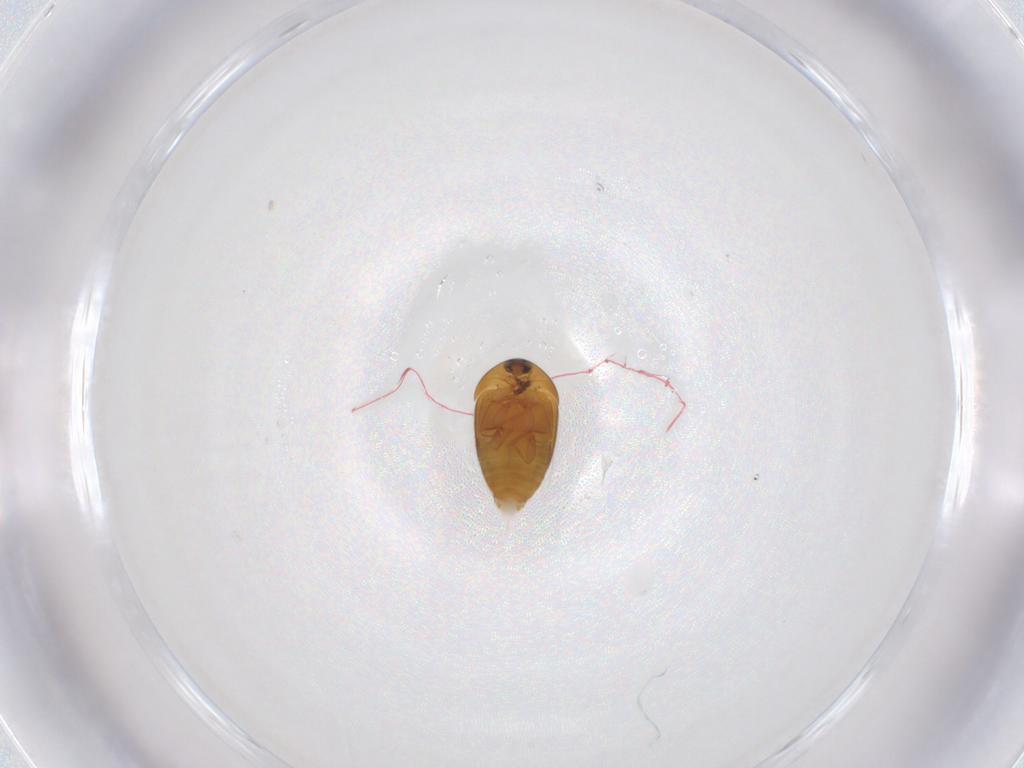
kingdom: Animalia
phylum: Arthropoda
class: Insecta
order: Coleoptera
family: Corylophidae
